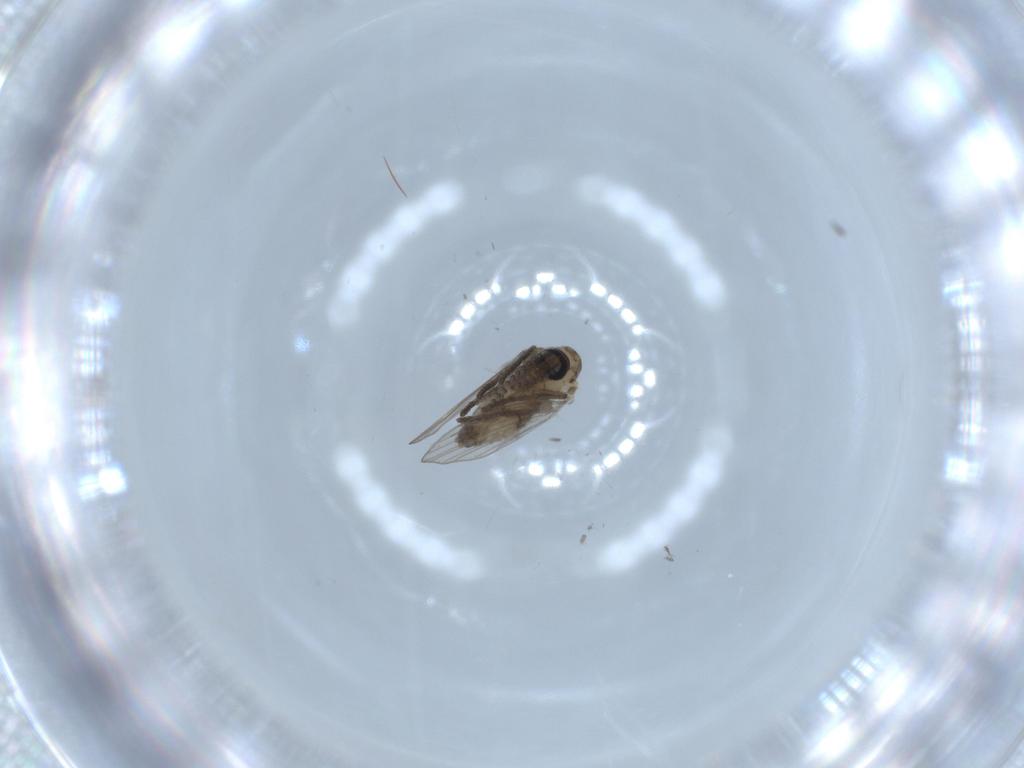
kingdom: Animalia
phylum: Arthropoda
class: Insecta
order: Diptera
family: Psychodidae
